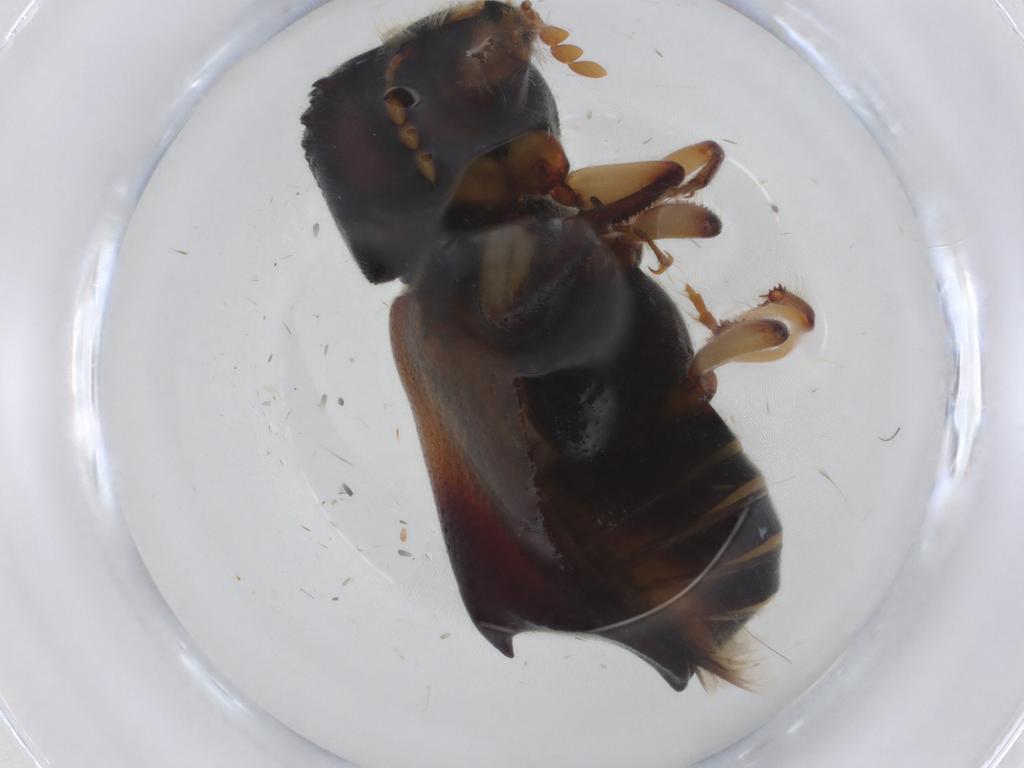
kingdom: Animalia
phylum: Arthropoda
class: Insecta
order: Coleoptera
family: Bostrichidae
